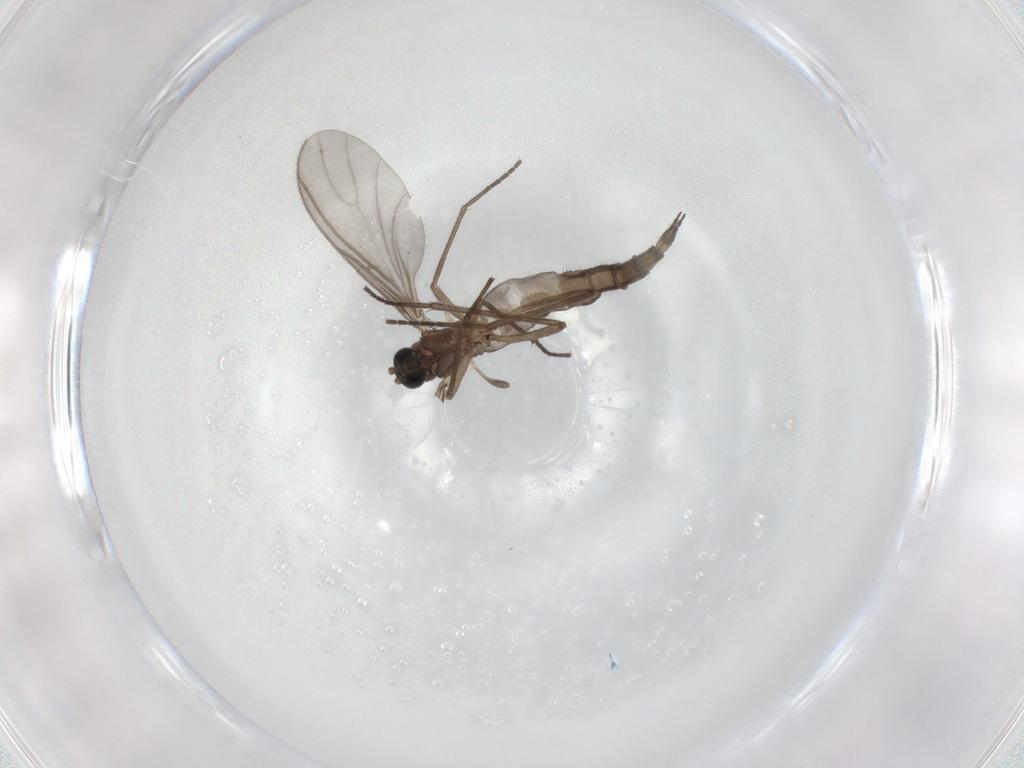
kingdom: Animalia
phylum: Arthropoda
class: Insecta
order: Diptera
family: Sciaridae
